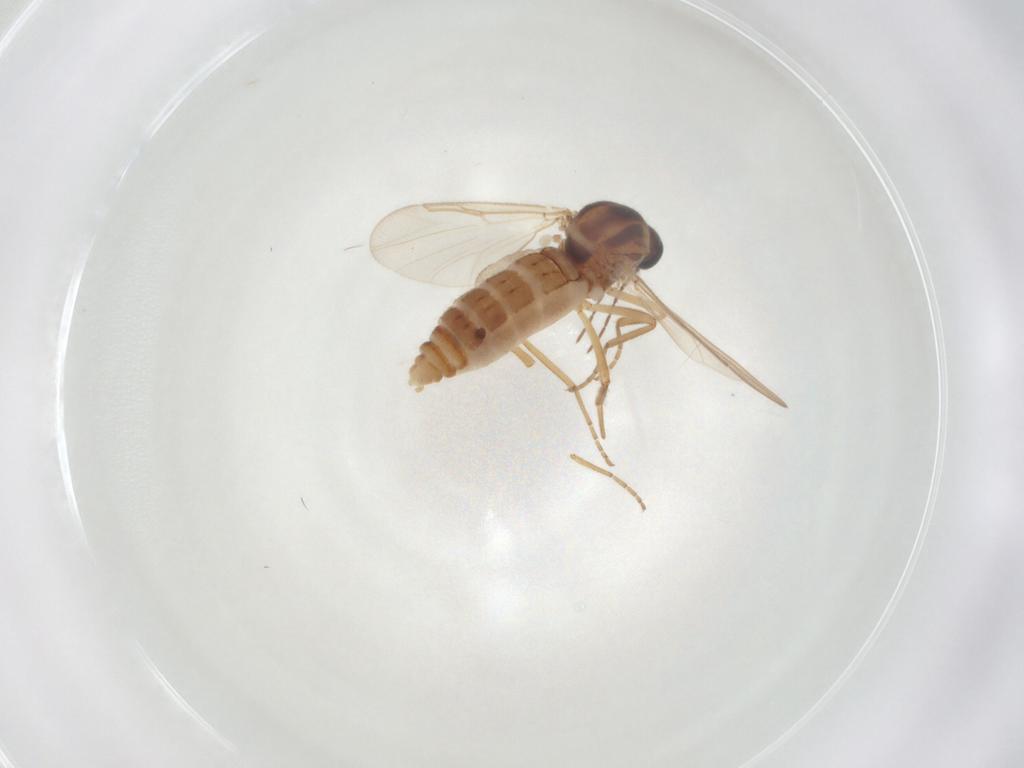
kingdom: Animalia
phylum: Arthropoda
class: Insecta
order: Diptera
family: Ceratopogonidae
